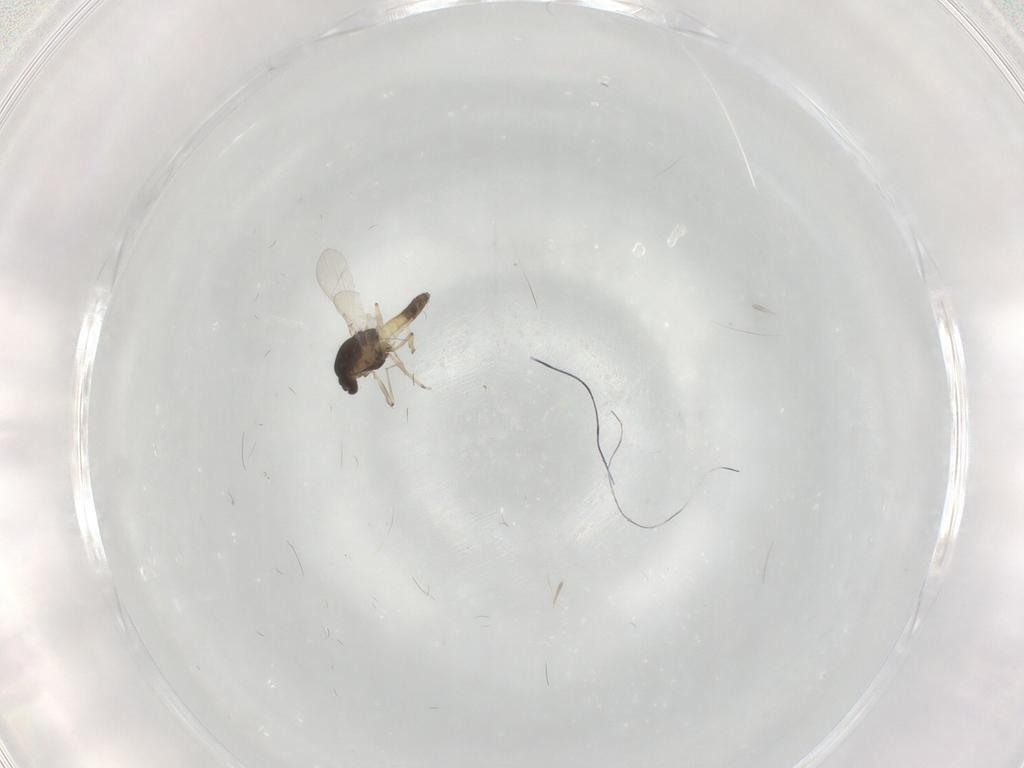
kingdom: Animalia
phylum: Arthropoda
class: Insecta
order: Diptera
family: Chironomidae
